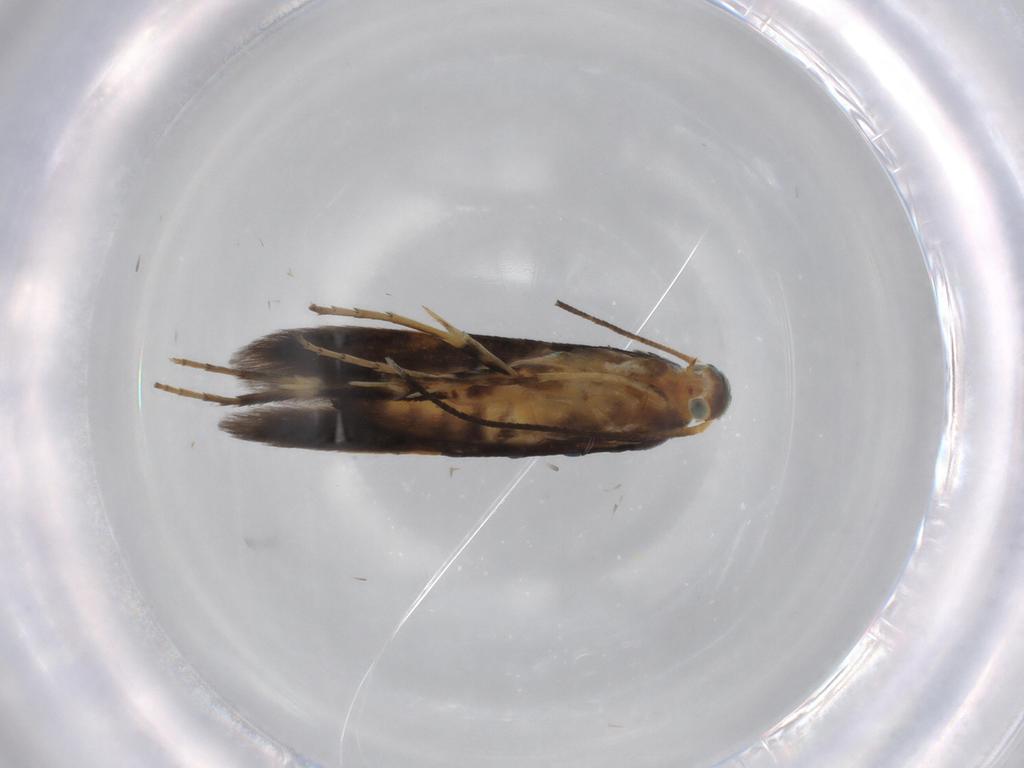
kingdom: Animalia
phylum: Arthropoda
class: Insecta
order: Lepidoptera
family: Heliodinidae
